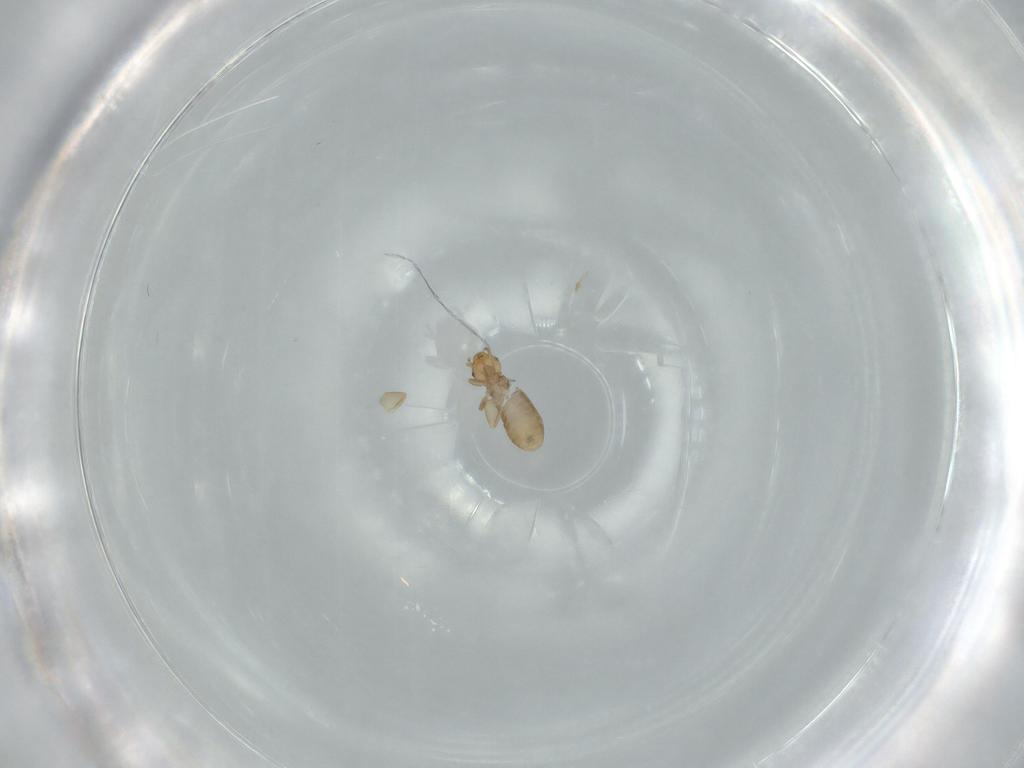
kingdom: Animalia
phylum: Arthropoda
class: Insecta
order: Psocodea
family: Liposcelididae
